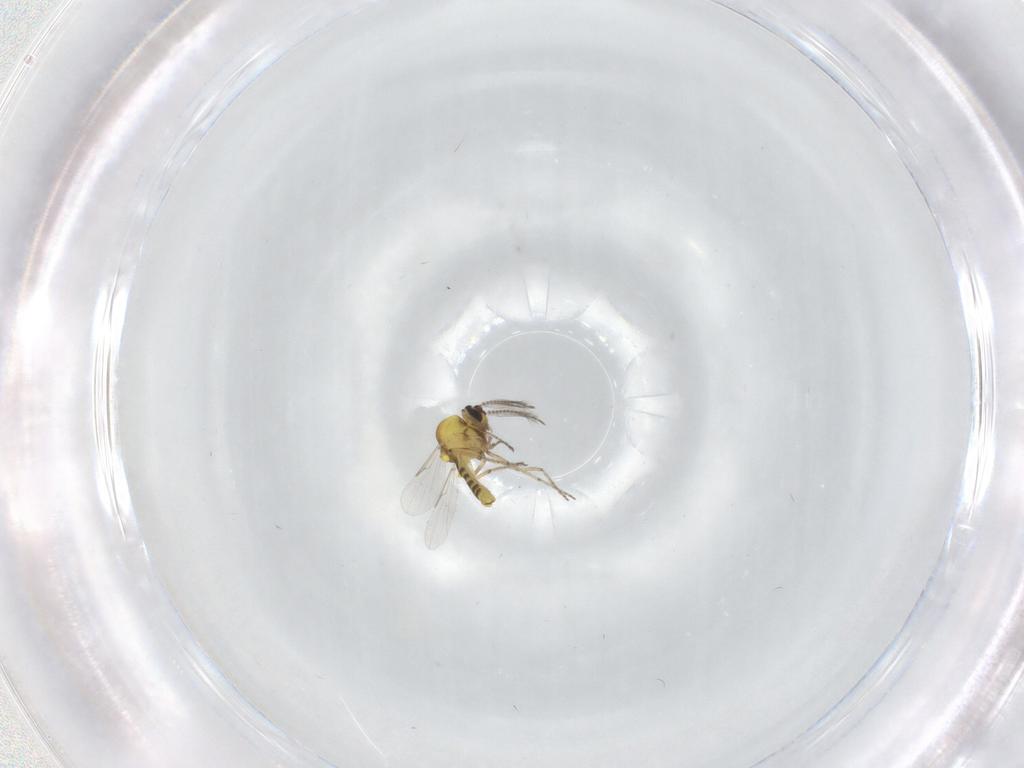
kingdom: Animalia
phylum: Arthropoda
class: Insecta
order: Diptera
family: Ceratopogonidae
